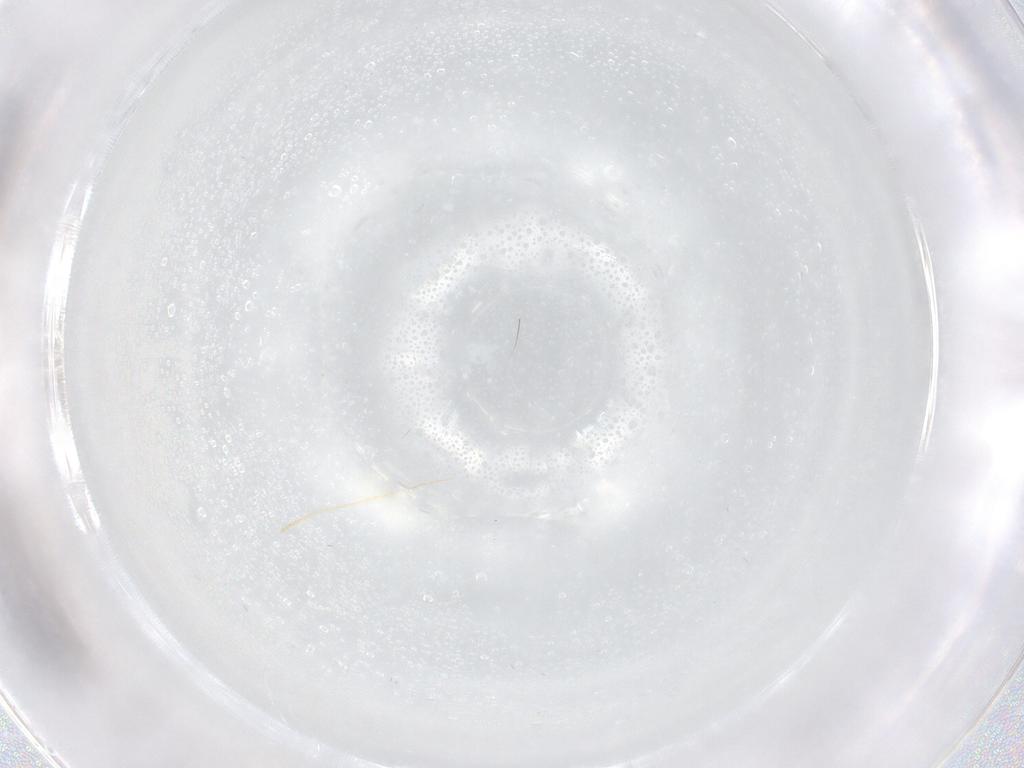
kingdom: Animalia
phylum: Arthropoda
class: Insecta
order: Thysanoptera
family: Phlaeothripidae
